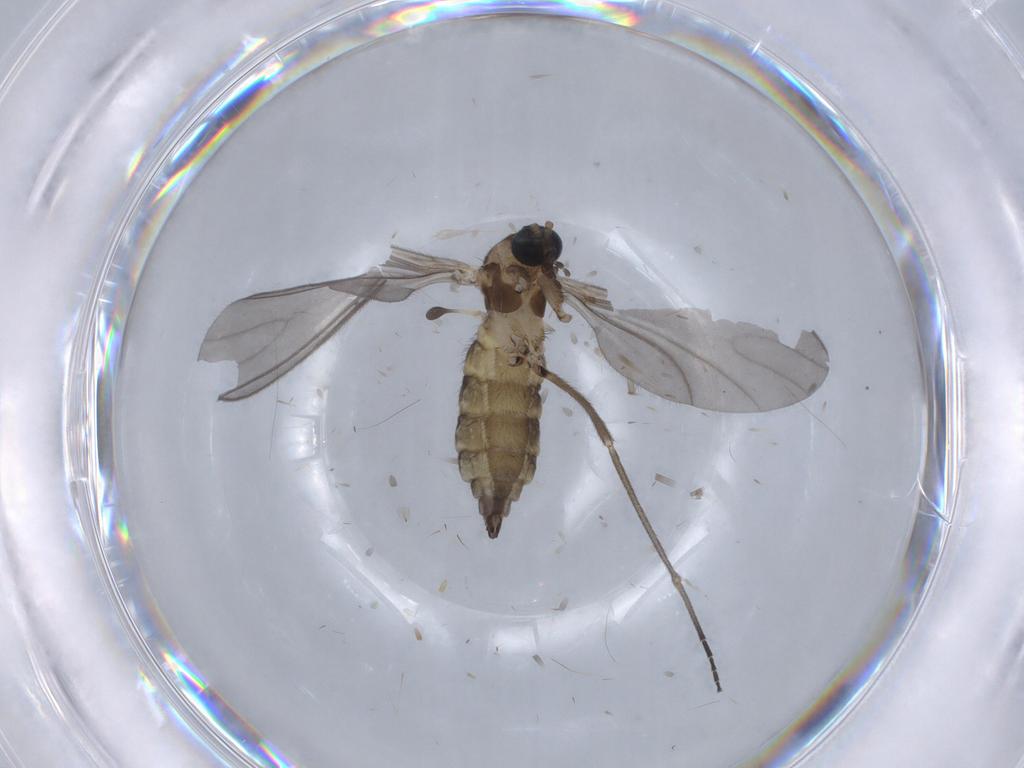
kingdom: Animalia
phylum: Arthropoda
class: Insecta
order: Diptera
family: Sciaridae
